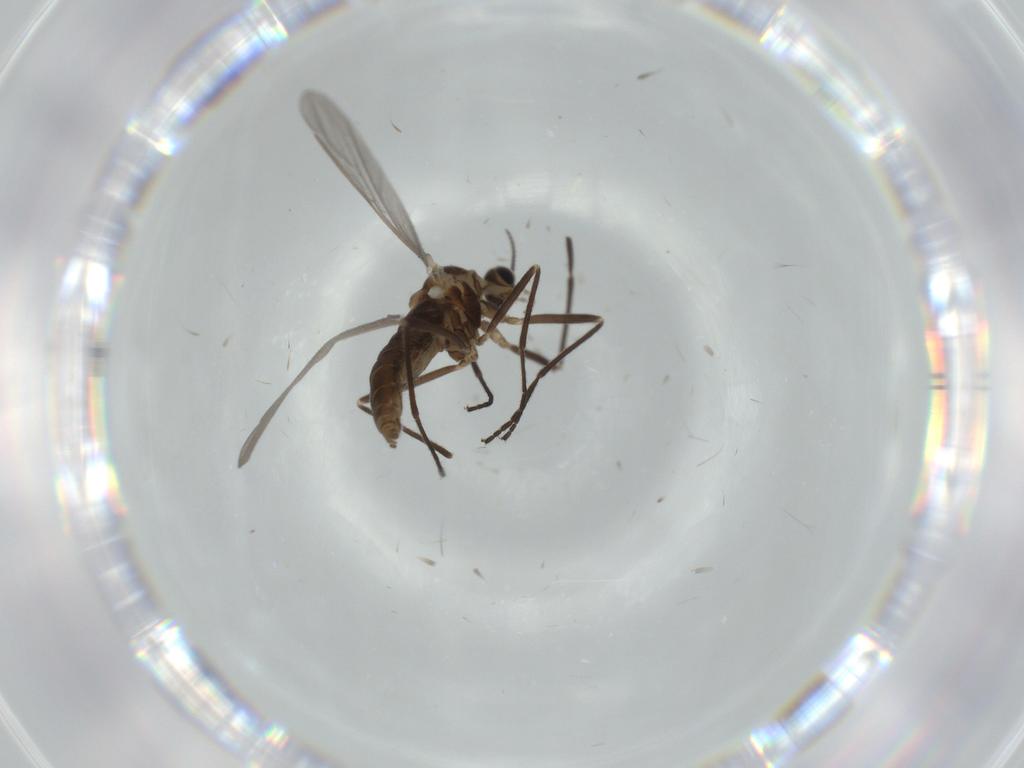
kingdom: Animalia
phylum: Arthropoda
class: Insecta
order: Diptera
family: Cecidomyiidae
